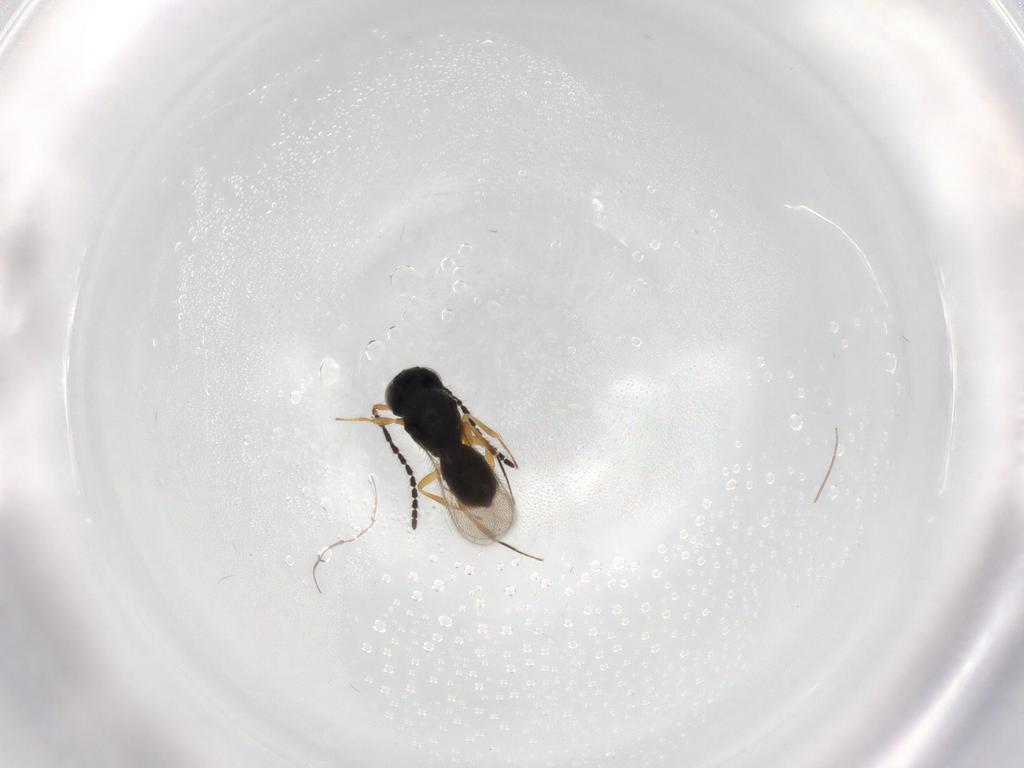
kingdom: Animalia
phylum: Arthropoda
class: Insecta
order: Hymenoptera
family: Scelionidae
